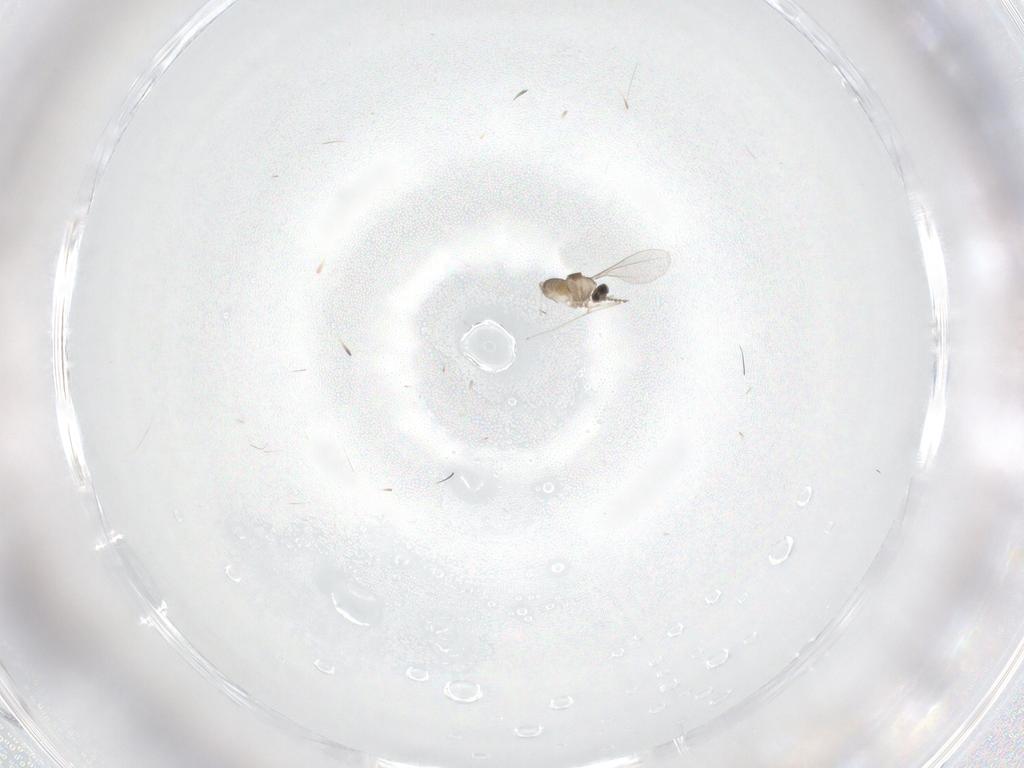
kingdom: Animalia
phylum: Arthropoda
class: Insecta
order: Diptera
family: Cecidomyiidae
